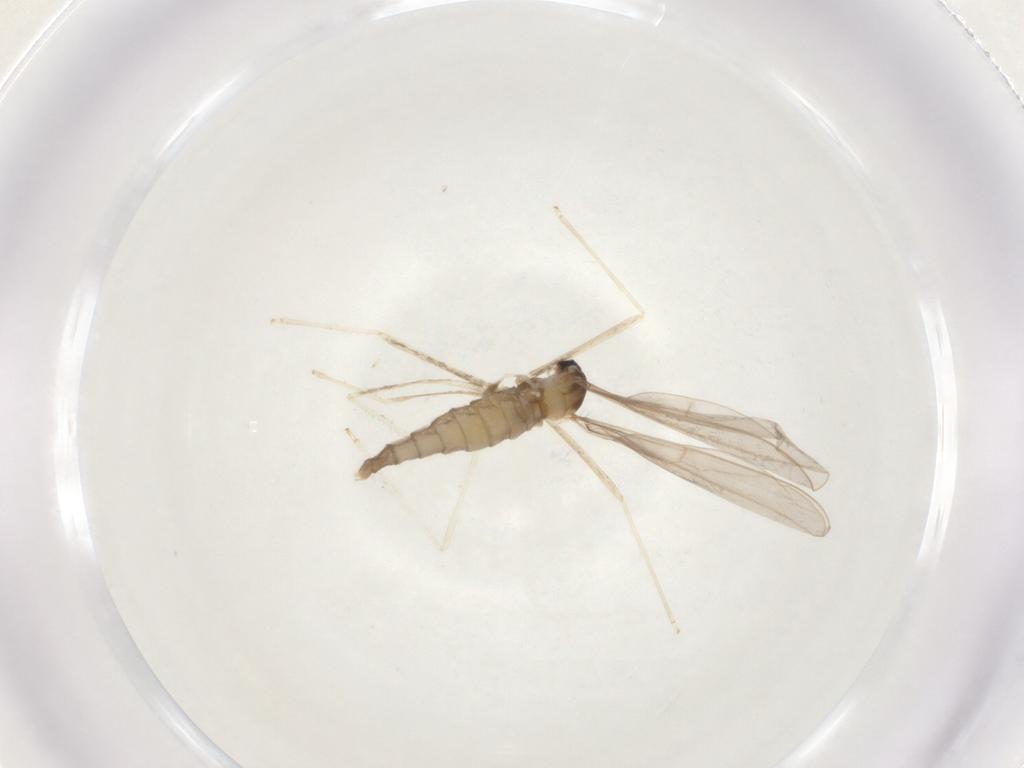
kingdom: Animalia
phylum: Arthropoda
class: Insecta
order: Diptera
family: Cecidomyiidae
